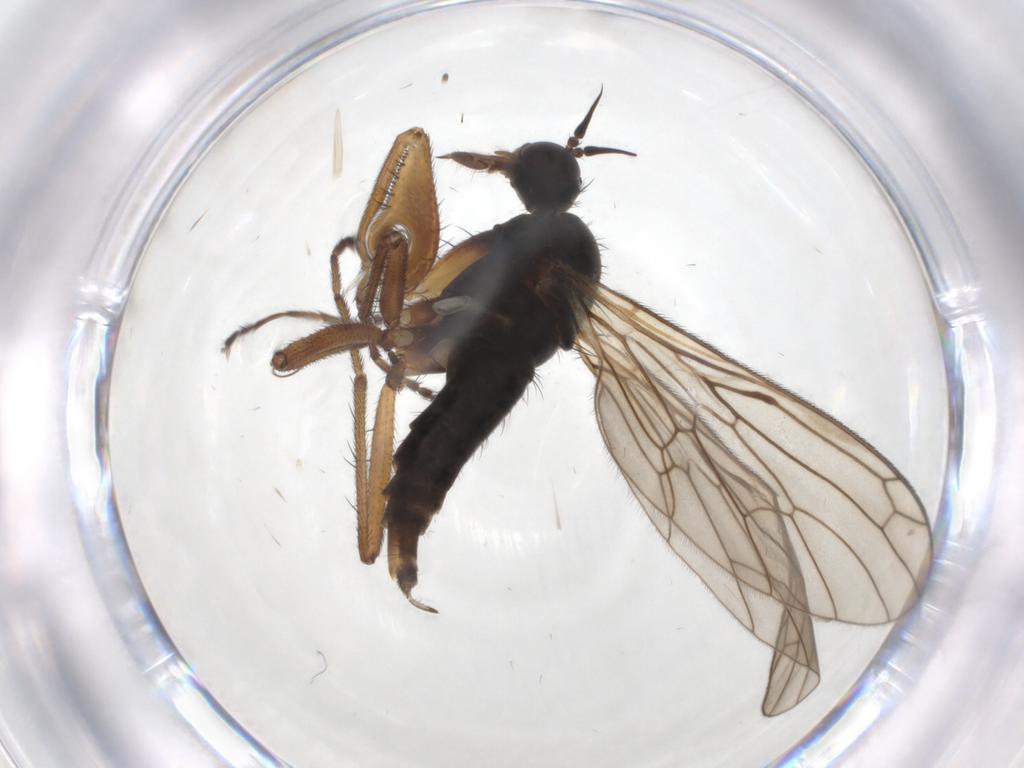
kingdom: Animalia
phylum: Arthropoda
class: Insecta
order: Diptera
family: Empididae
